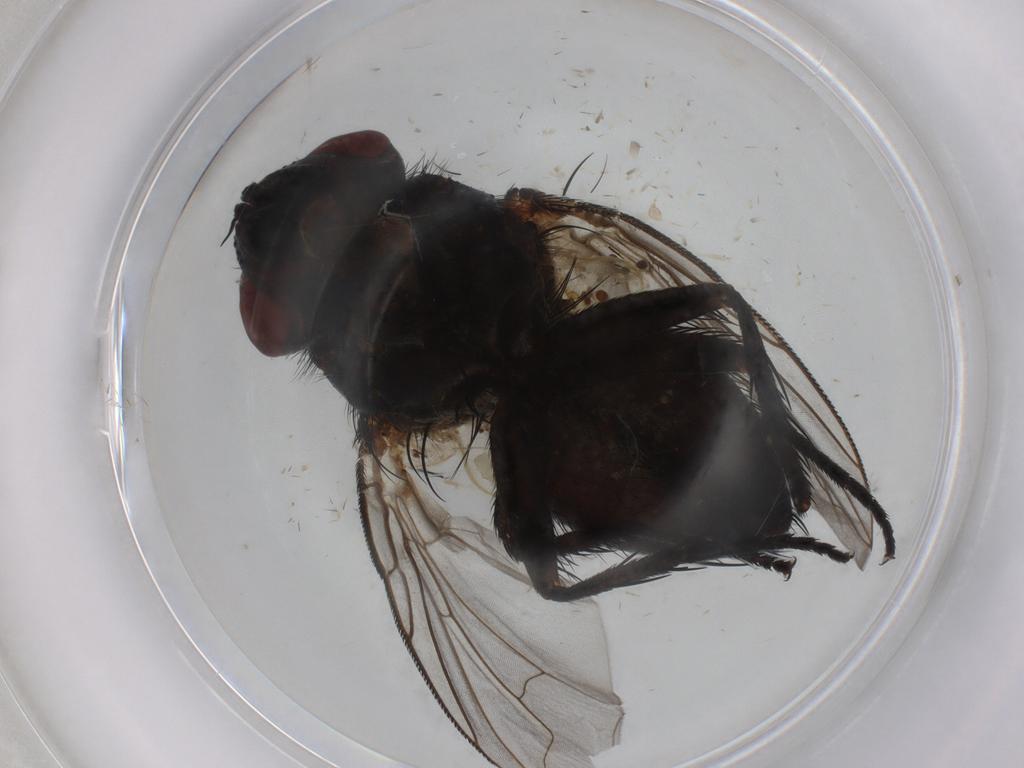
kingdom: Animalia
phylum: Arthropoda
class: Insecta
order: Diptera
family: Tachinidae
